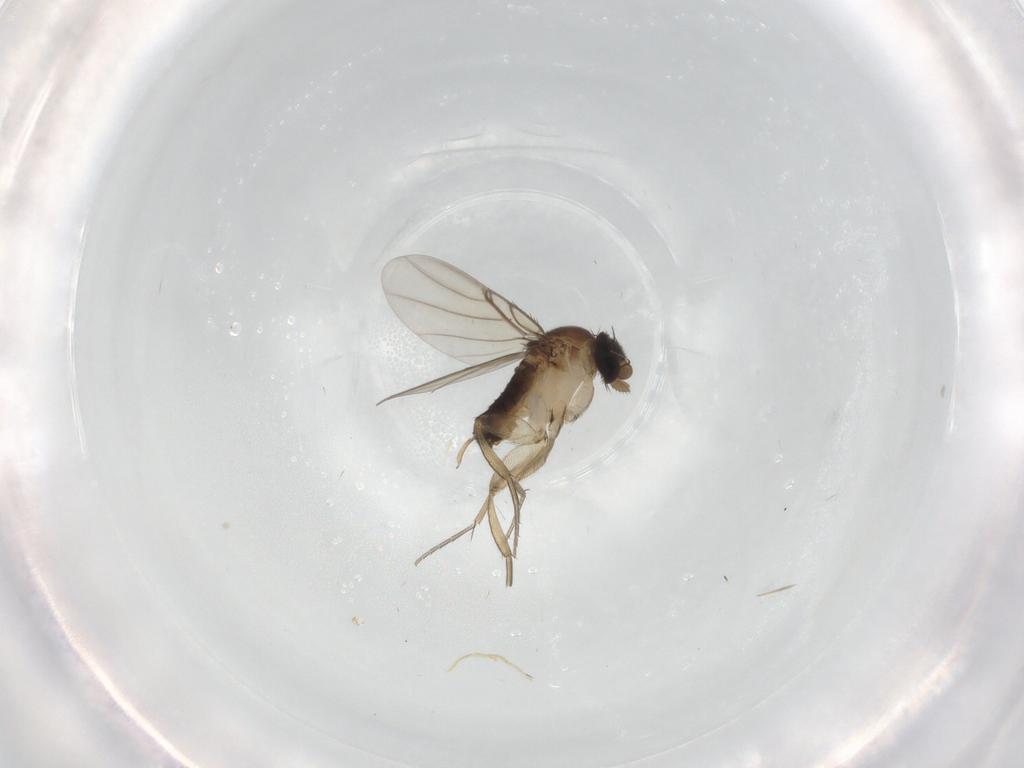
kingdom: Animalia
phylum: Arthropoda
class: Insecta
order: Diptera
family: Phoridae
